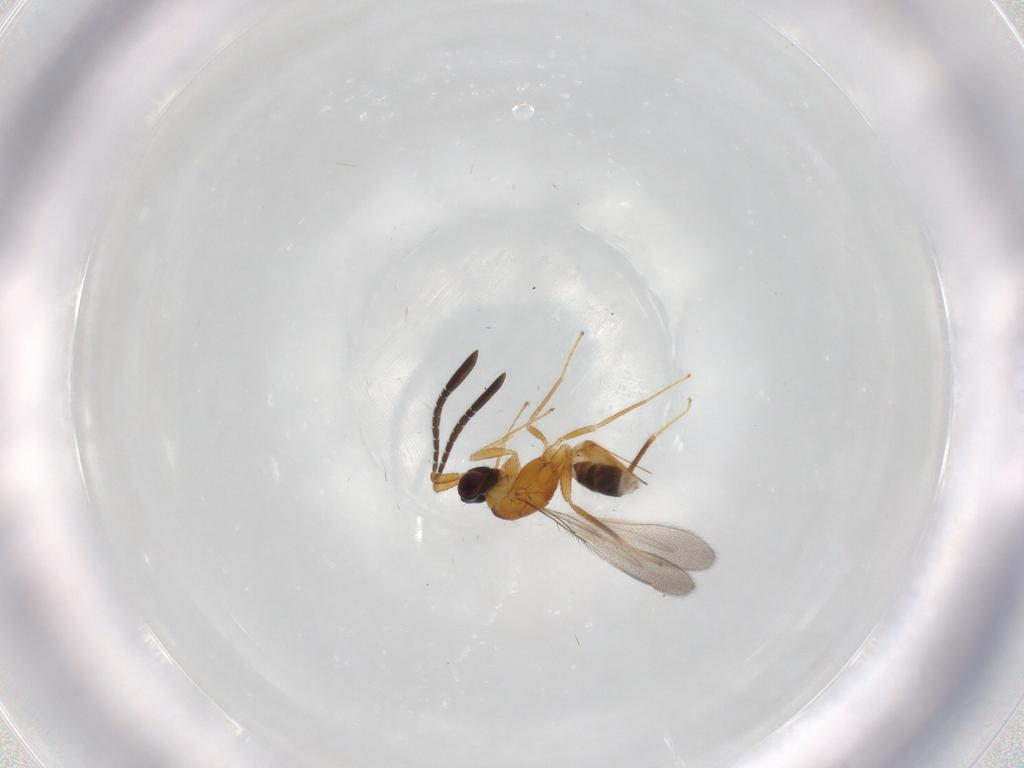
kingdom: Animalia
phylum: Arthropoda
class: Insecta
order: Hymenoptera
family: Mymaridae
